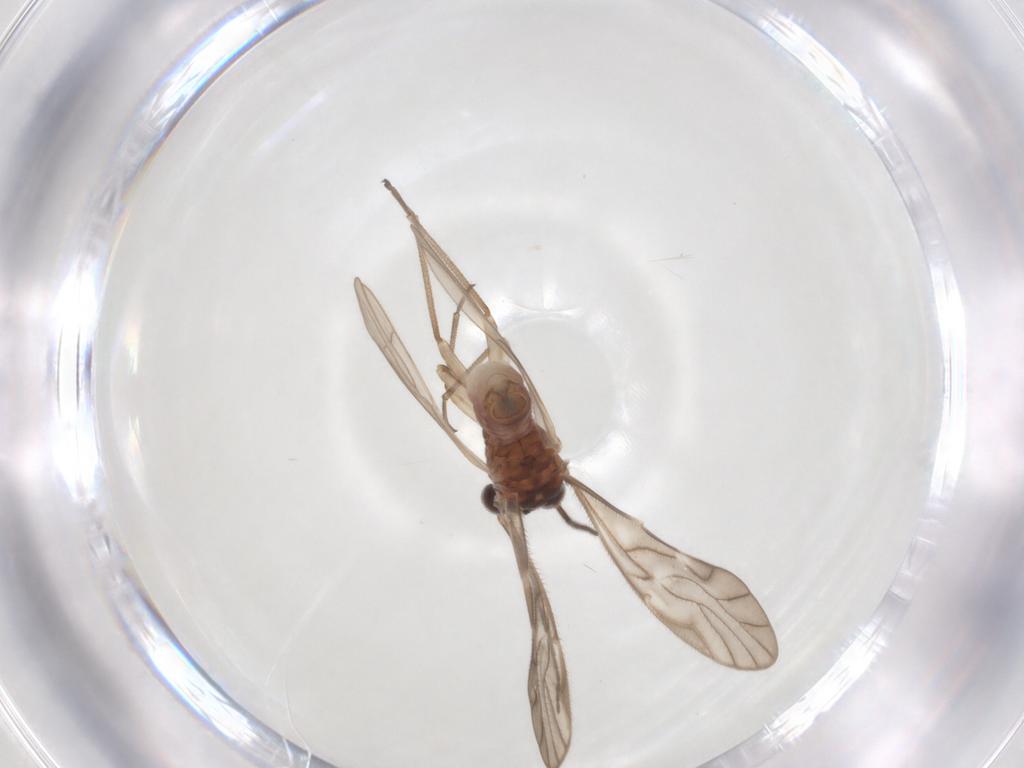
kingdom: Animalia
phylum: Arthropoda
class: Insecta
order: Psocodea
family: Caeciliusidae
